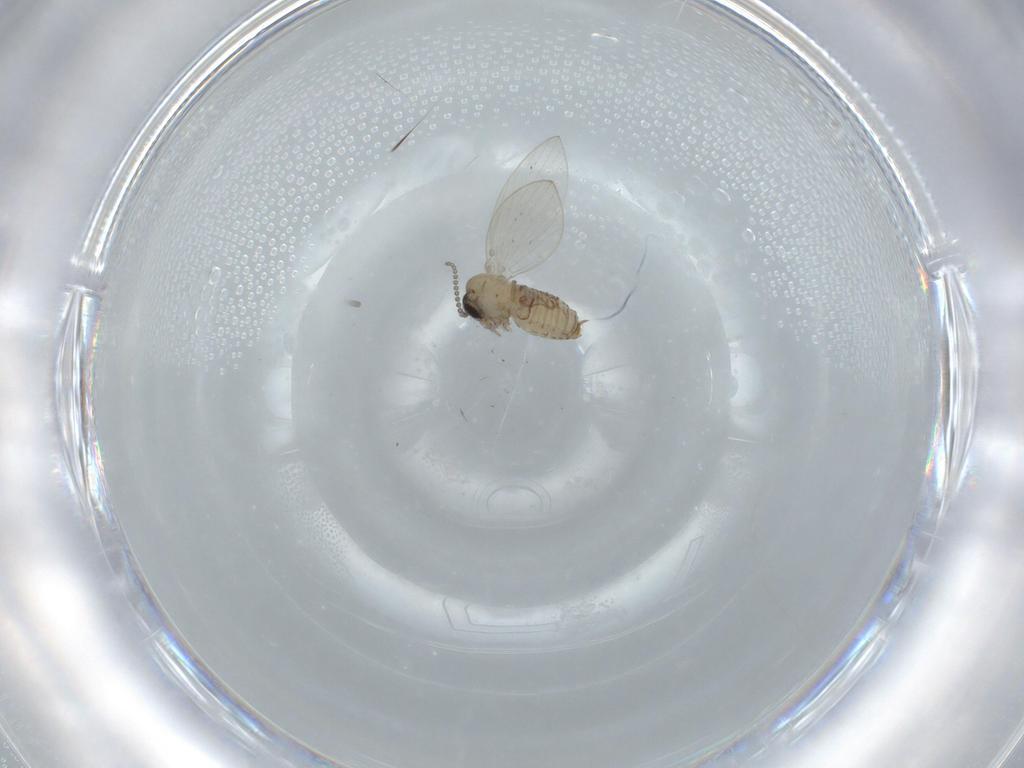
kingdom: Animalia
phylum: Arthropoda
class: Insecta
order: Diptera
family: Psychodidae
